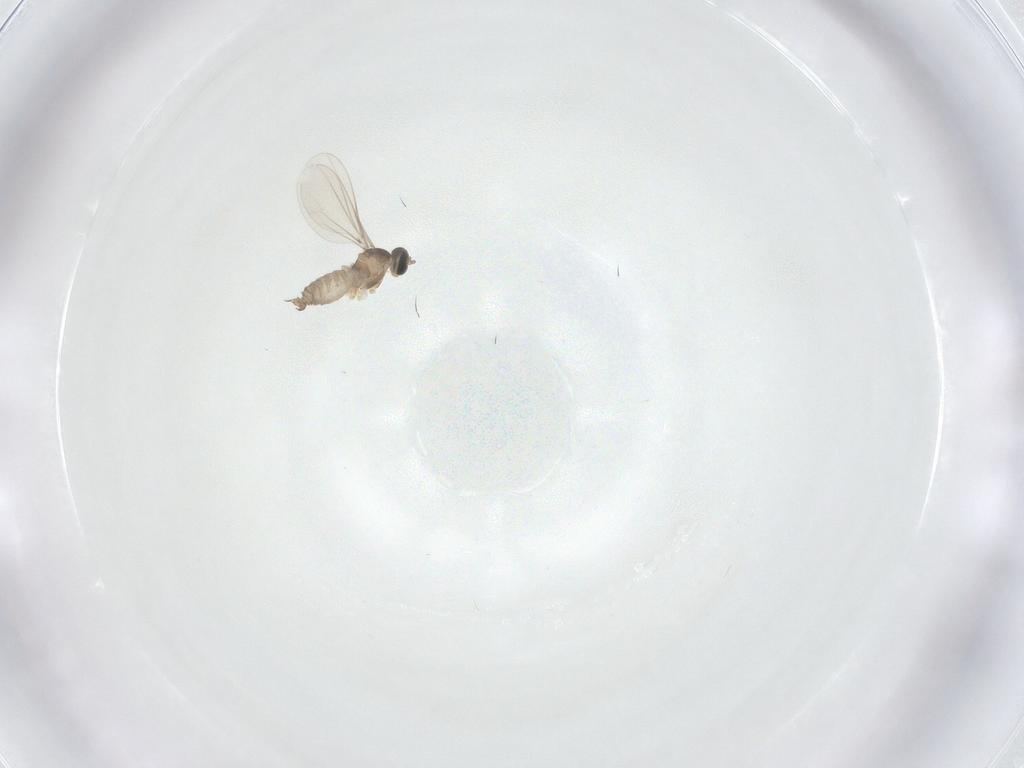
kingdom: Animalia
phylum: Arthropoda
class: Insecta
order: Diptera
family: Cecidomyiidae
